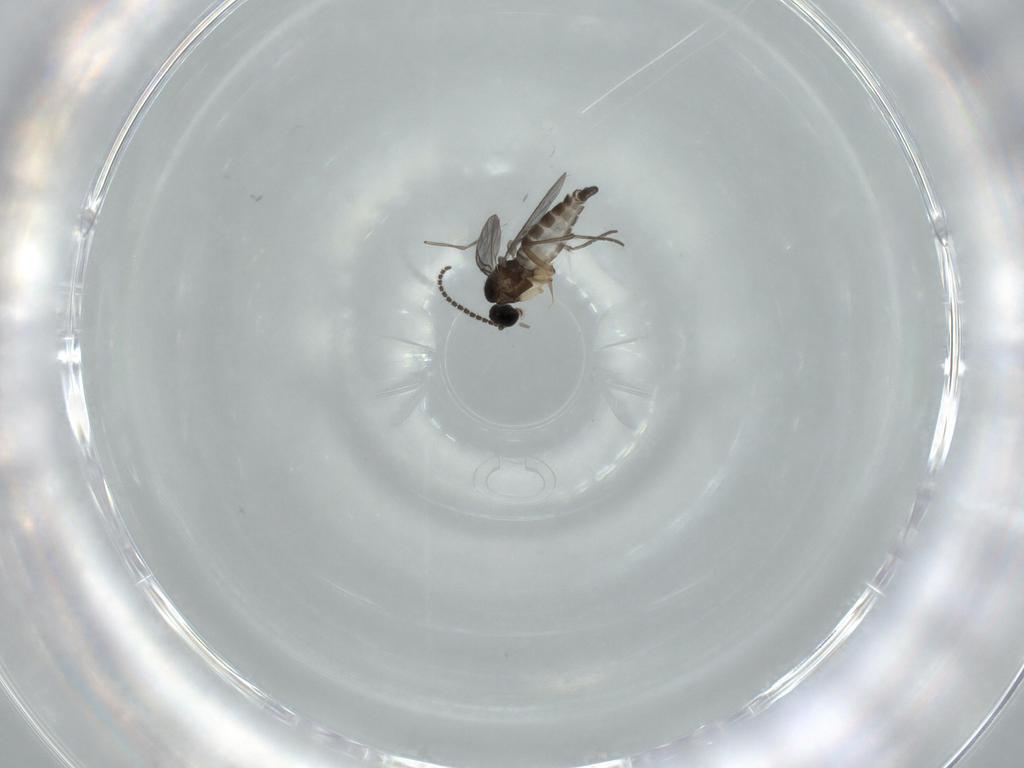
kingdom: Animalia
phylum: Arthropoda
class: Insecta
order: Diptera
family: Sciaridae
